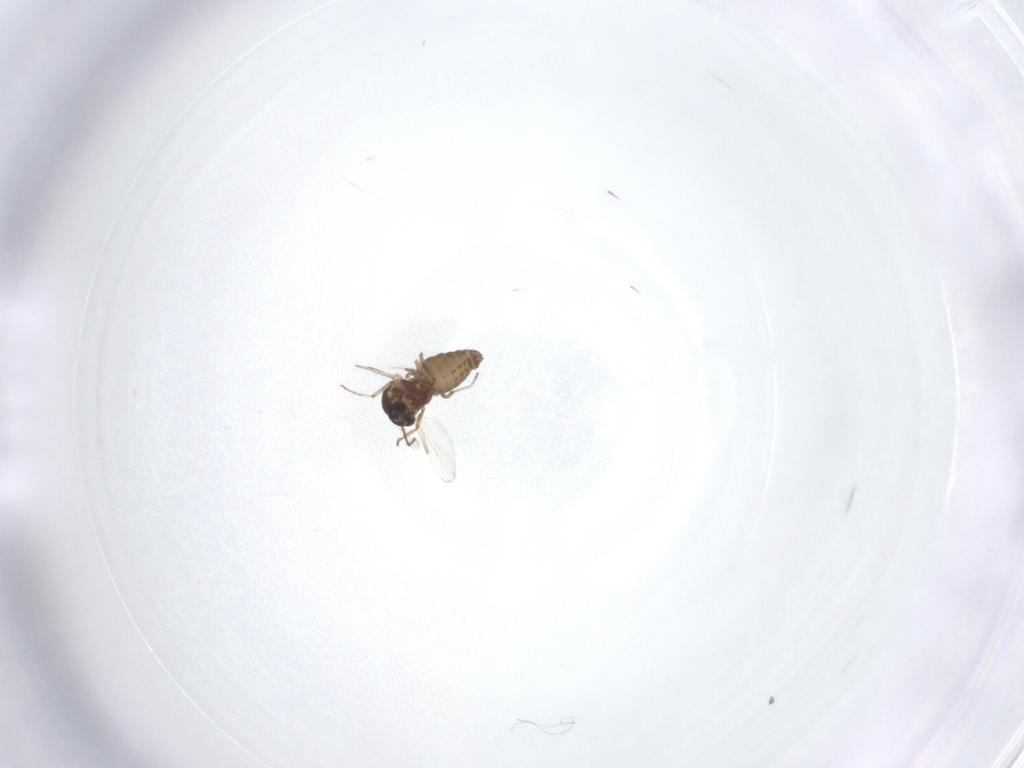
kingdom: Animalia
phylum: Arthropoda
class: Insecta
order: Diptera
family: Ceratopogonidae
